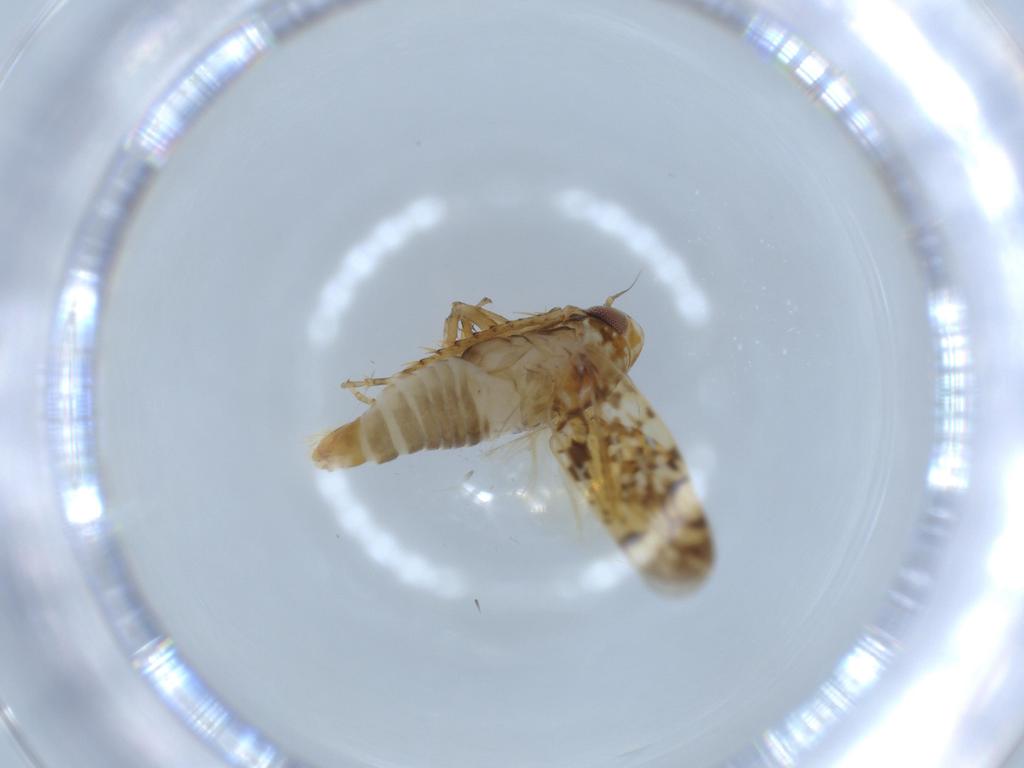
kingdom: Animalia
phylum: Arthropoda
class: Insecta
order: Hemiptera
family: Cicadellidae
